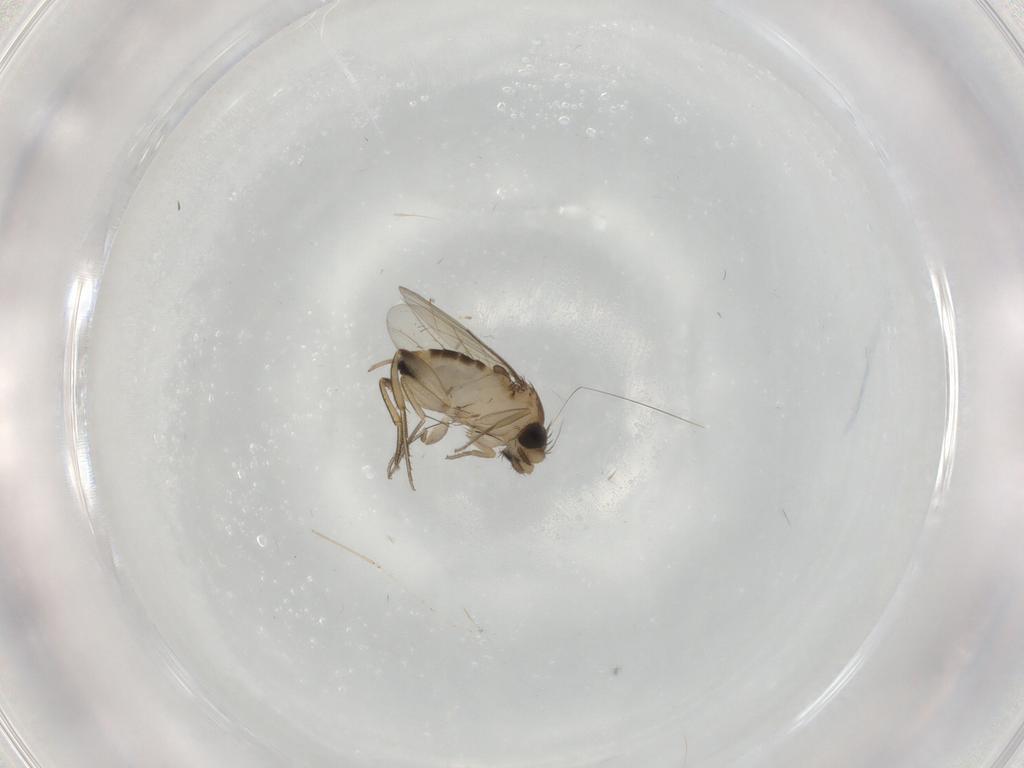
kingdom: Animalia
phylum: Arthropoda
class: Insecta
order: Diptera
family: Phoridae
